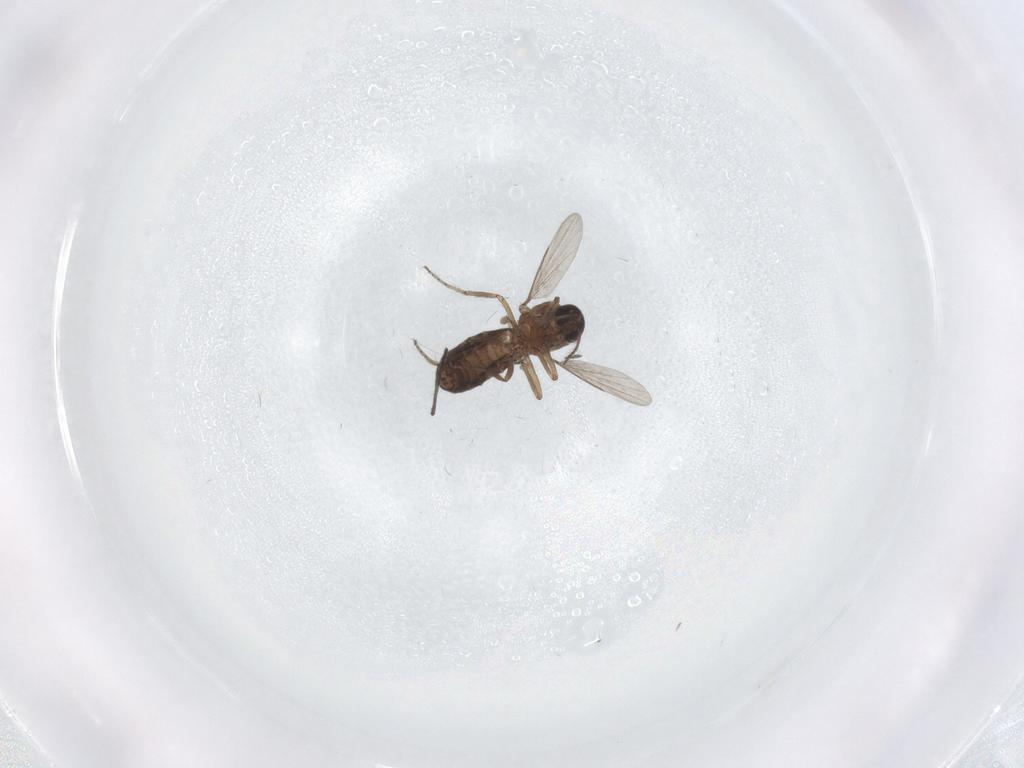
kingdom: Animalia
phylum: Arthropoda
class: Insecta
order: Diptera
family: Ceratopogonidae
